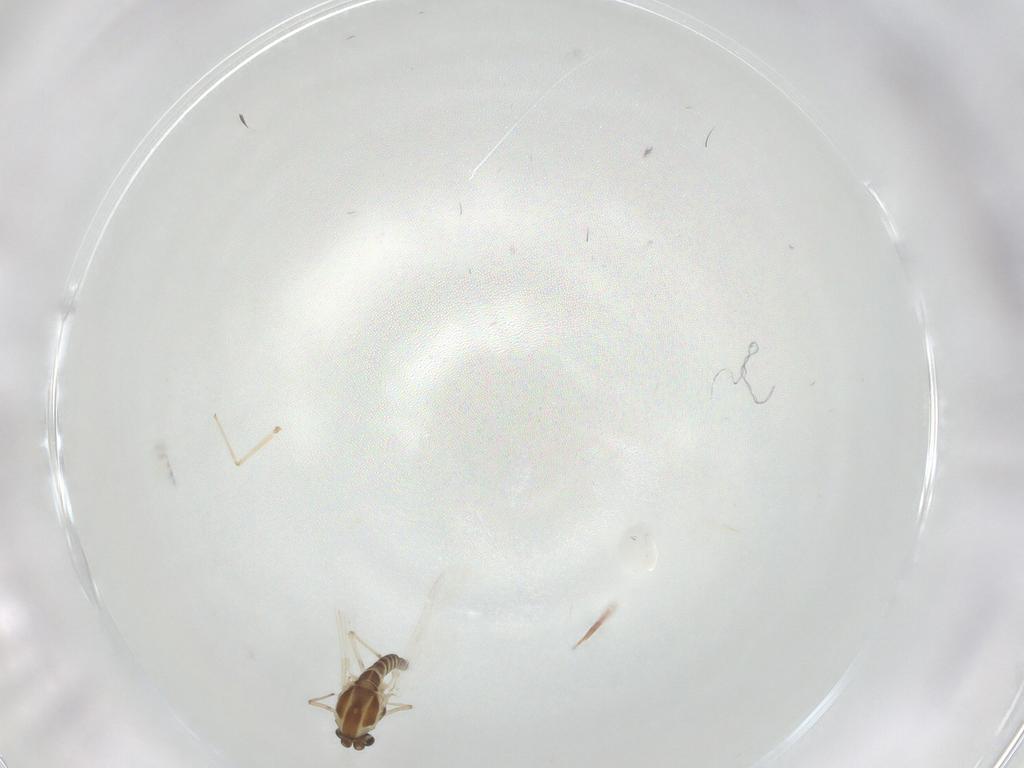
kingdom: Animalia
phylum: Arthropoda
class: Insecta
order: Diptera
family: Chironomidae
